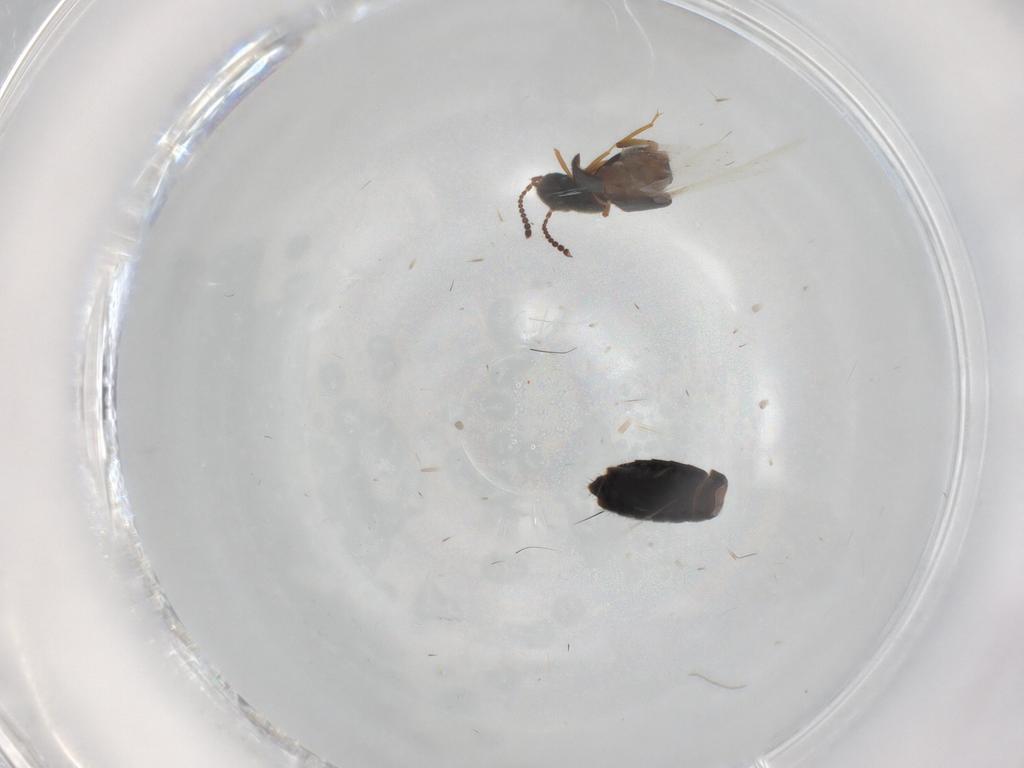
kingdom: Animalia
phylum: Arthropoda
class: Insecta
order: Coleoptera
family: Staphylinidae
